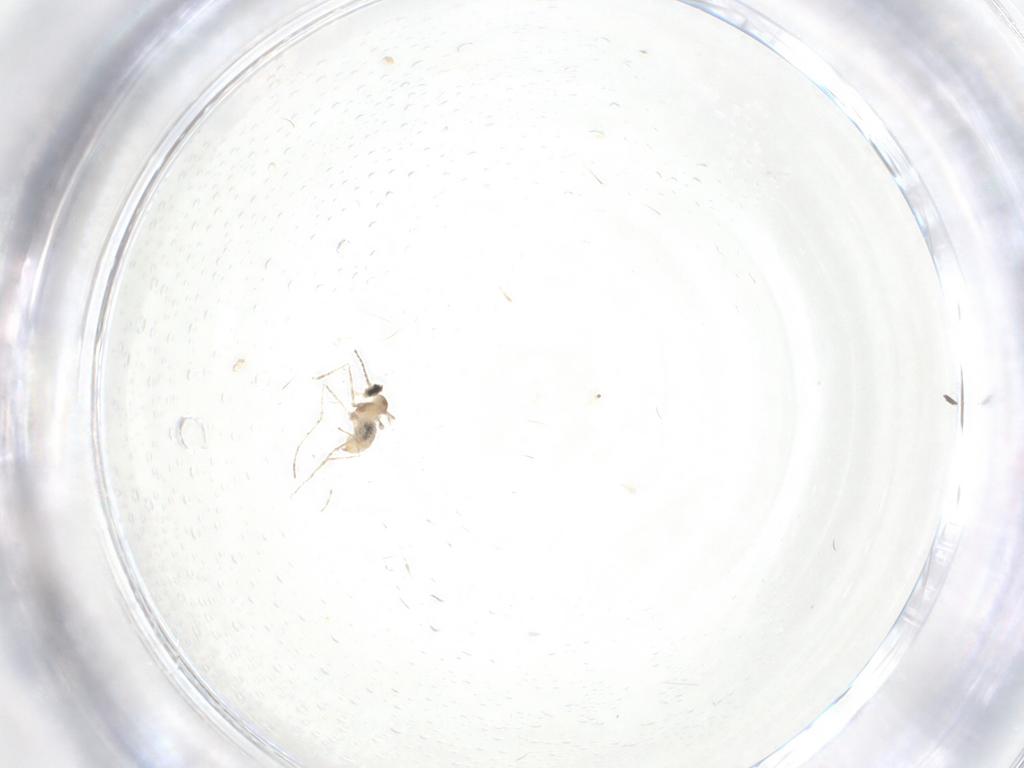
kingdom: Animalia
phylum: Arthropoda
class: Insecta
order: Diptera
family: Cecidomyiidae
